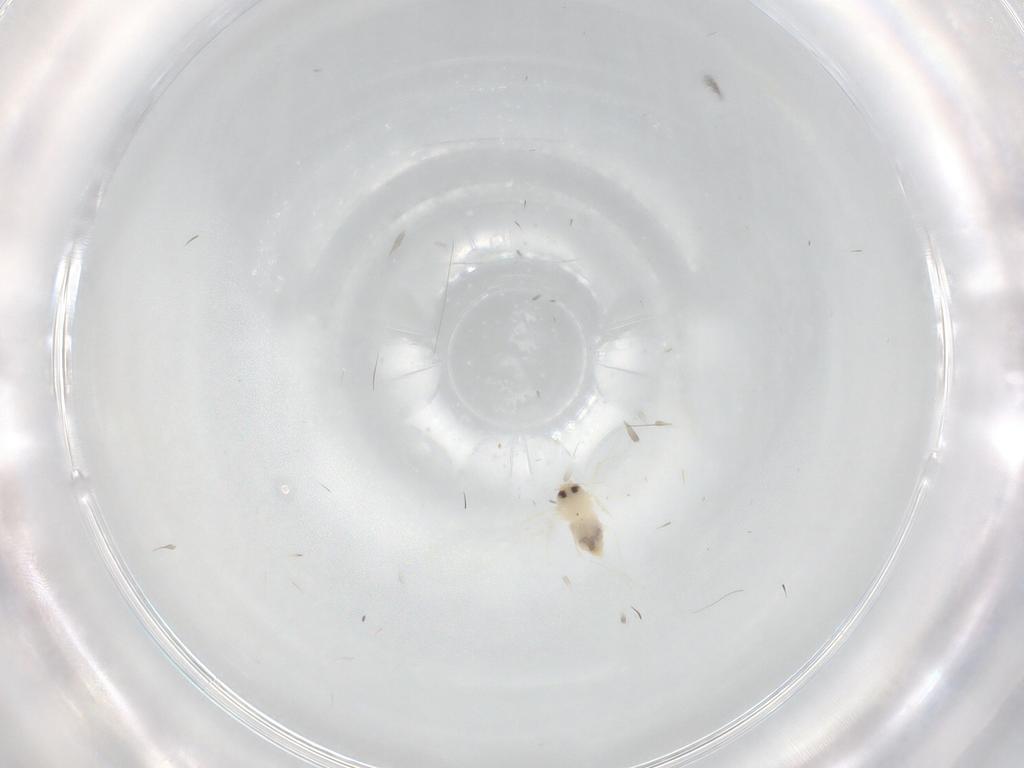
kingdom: Animalia
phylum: Arthropoda
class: Insecta
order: Hemiptera
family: Aleyrodidae
